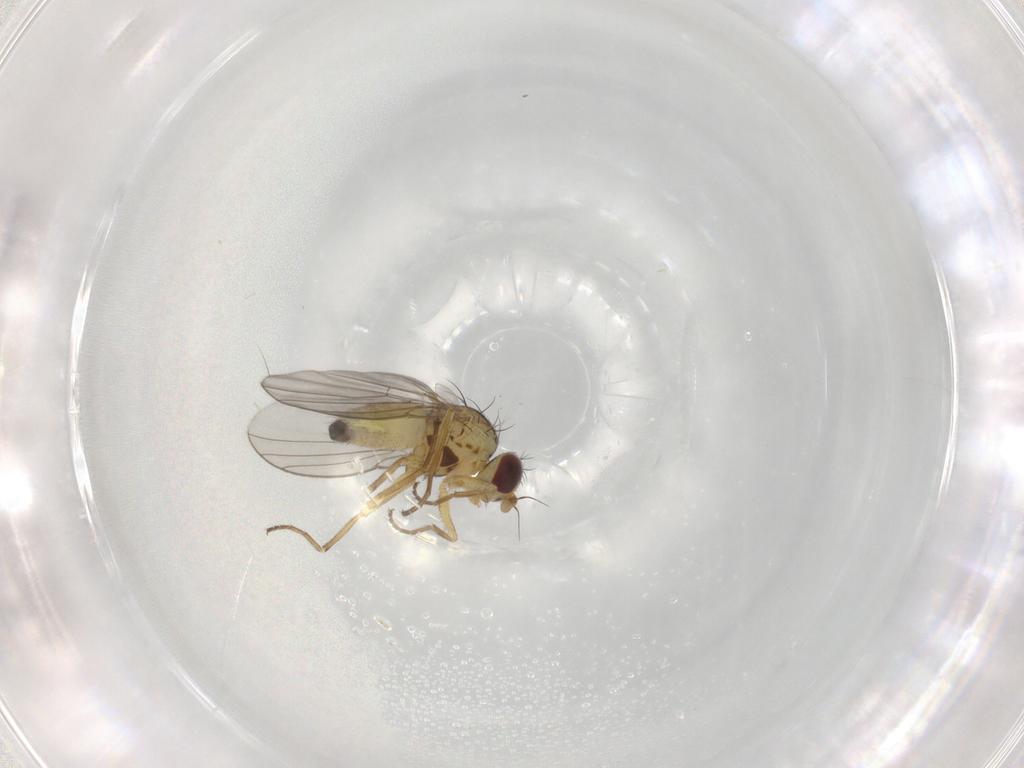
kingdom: Animalia
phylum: Arthropoda
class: Insecta
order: Diptera
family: Agromyzidae
